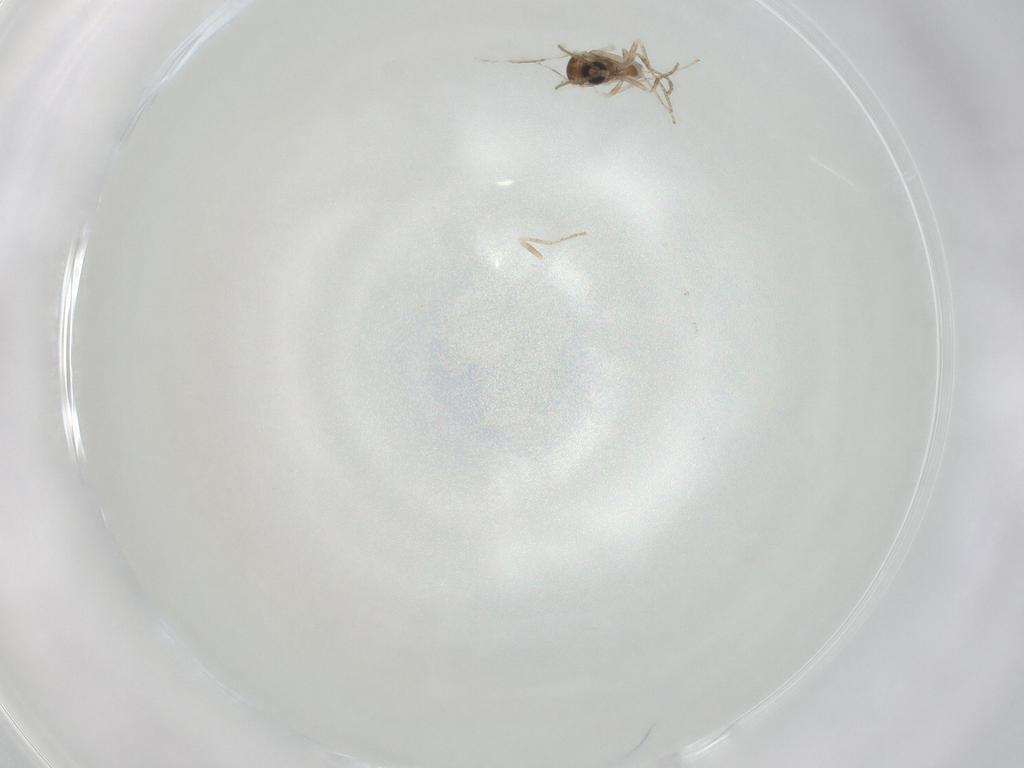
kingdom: Animalia
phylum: Arthropoda
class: Insecta
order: Diptera
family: Cecidomyiidae
